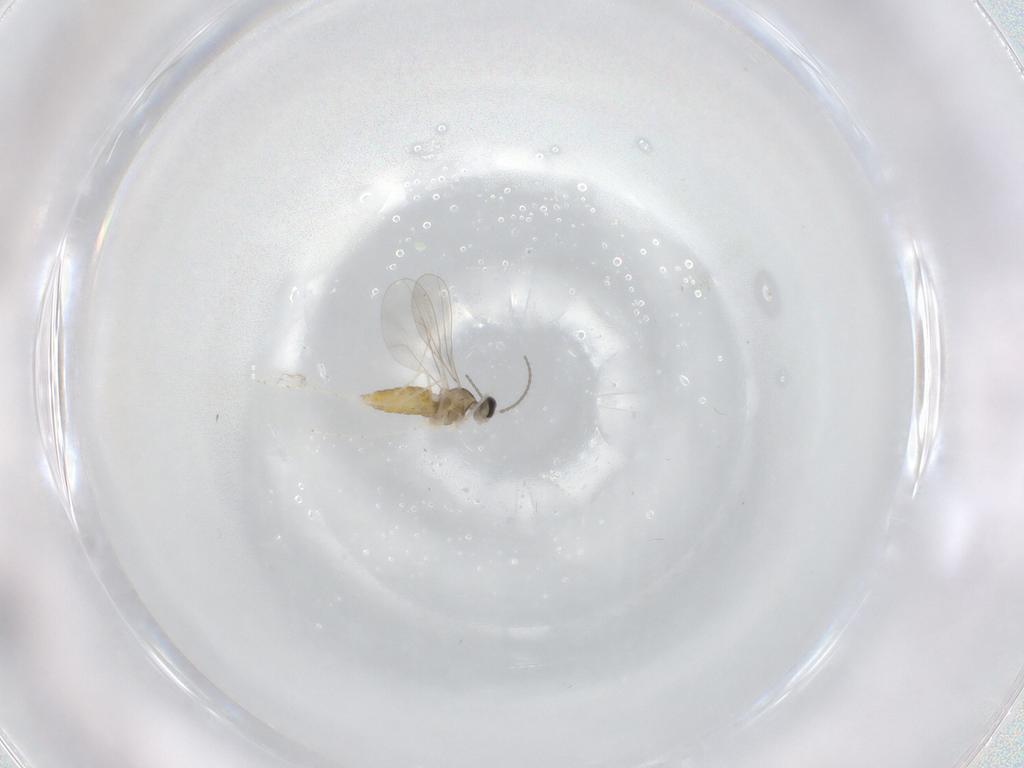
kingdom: Animalia
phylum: Arthropoda
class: Insecta
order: Diptera
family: Cecidomyiidae
